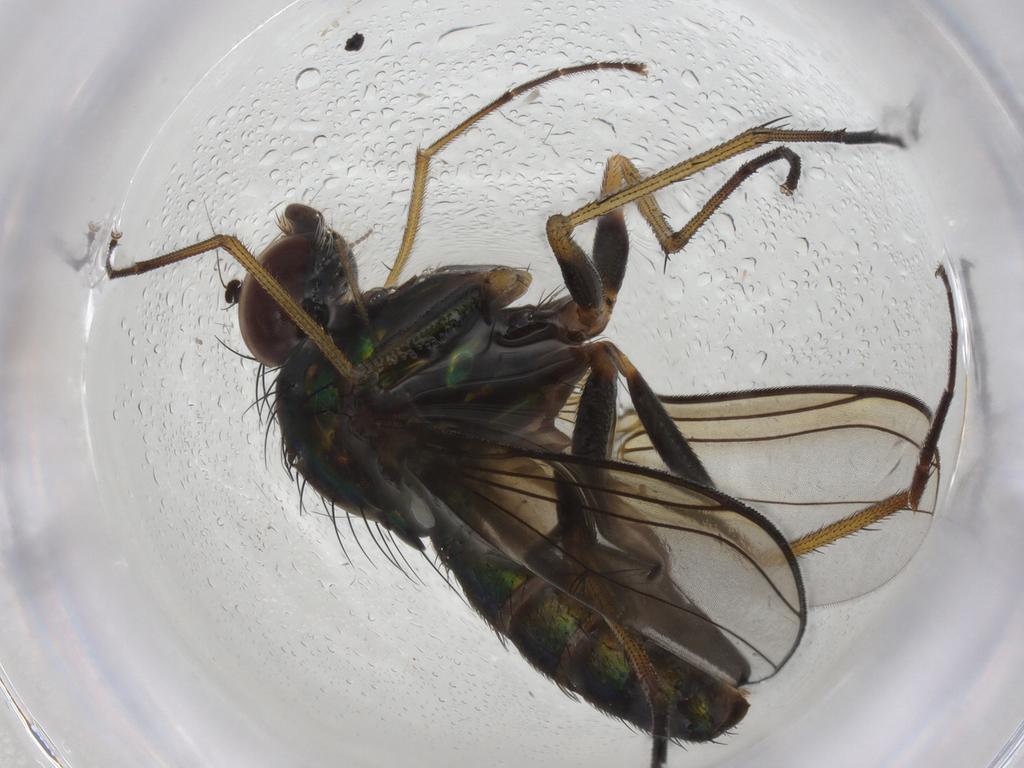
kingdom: Animalia
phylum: Arthropoda
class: Insecta
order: Diptera
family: Dolichopodidae
